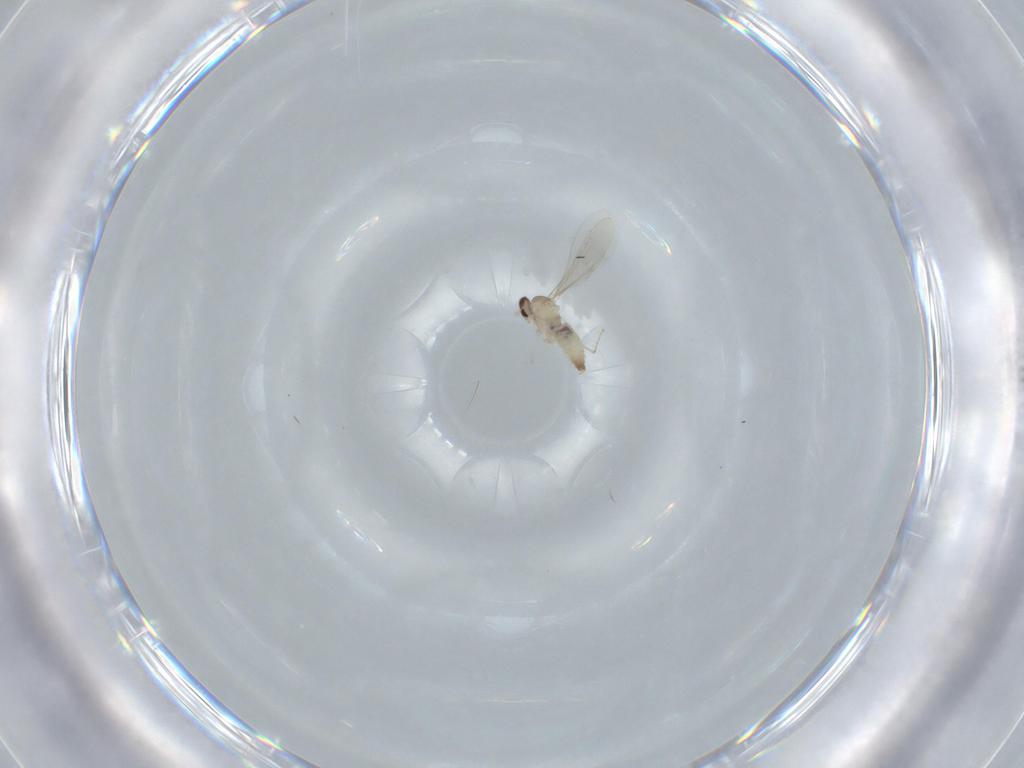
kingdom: Animalia
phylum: Arthropoda
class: Insecta
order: Diptera
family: Cecidomyiidae
